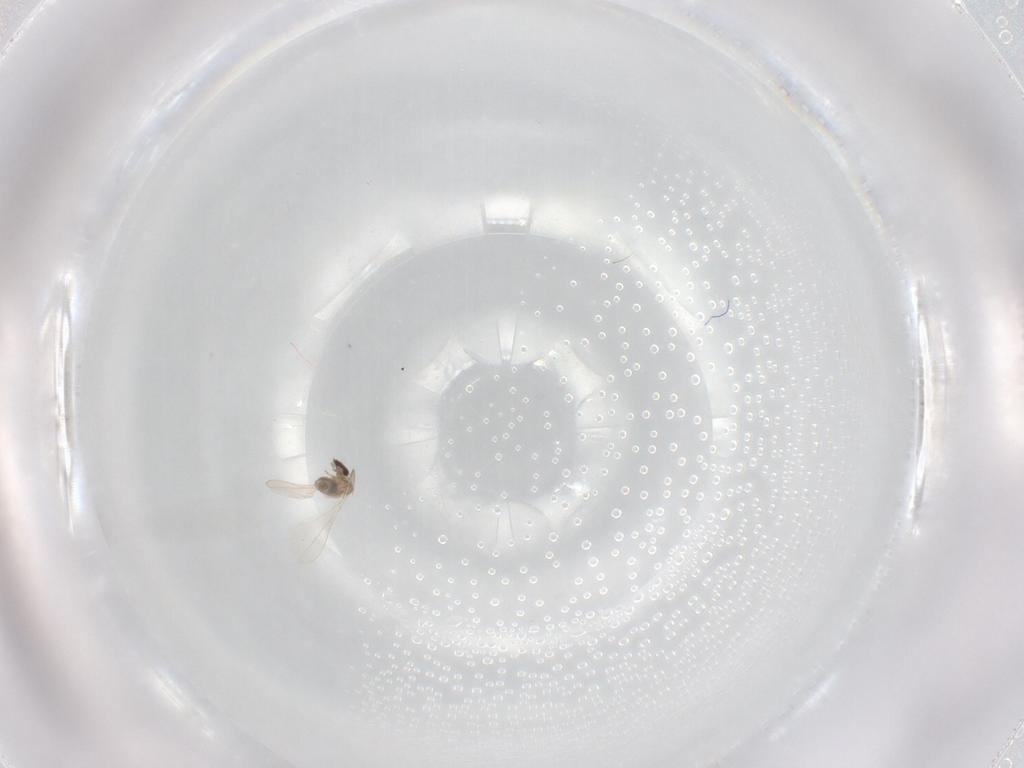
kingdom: Animalia
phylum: Arthropoda
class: Insecta
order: Diptera
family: Cecidomyiidae
